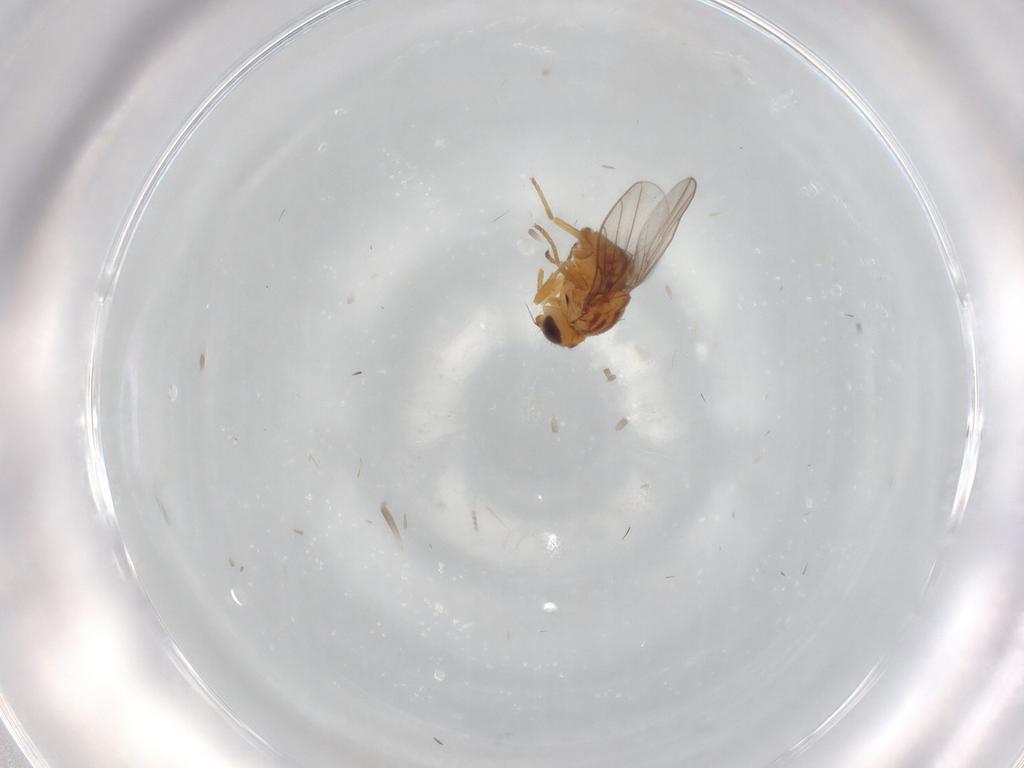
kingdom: Animalia
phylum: Arthropoda
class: Insecta
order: Diptera
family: Chloropidae
